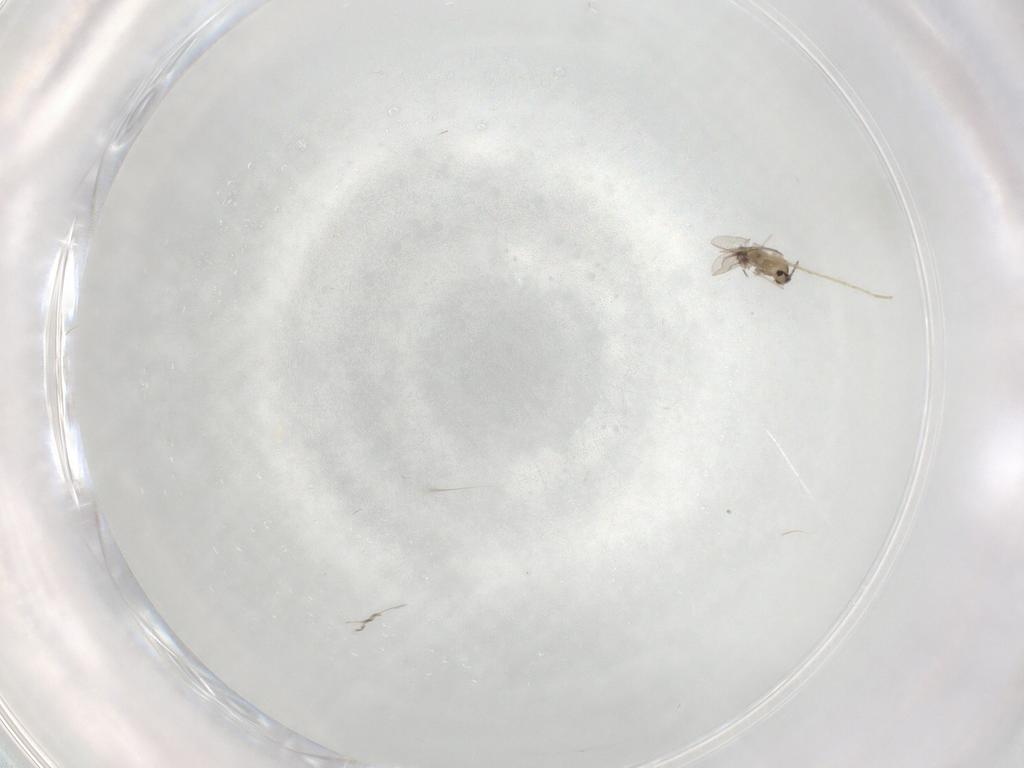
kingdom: Animalia
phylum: Arthropoda
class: Insecta
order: Diptera
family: Cecidomyiidae
